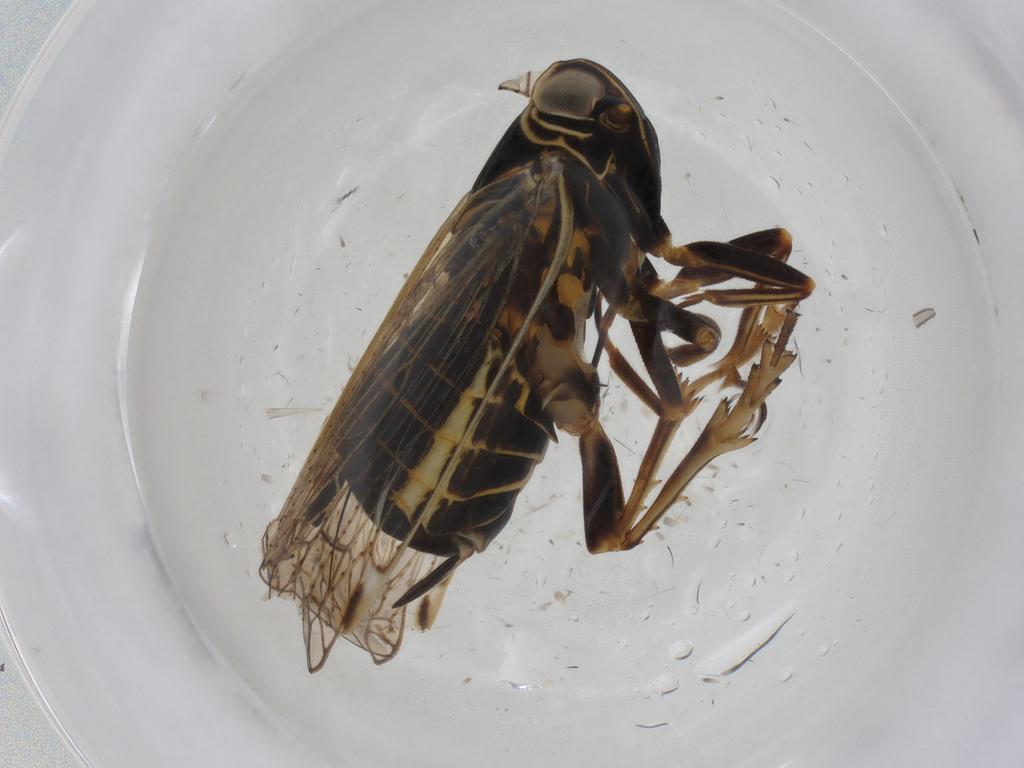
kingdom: Animalia
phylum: Arthropoda
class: Insecta
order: Hemiptera
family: Cixiidae
